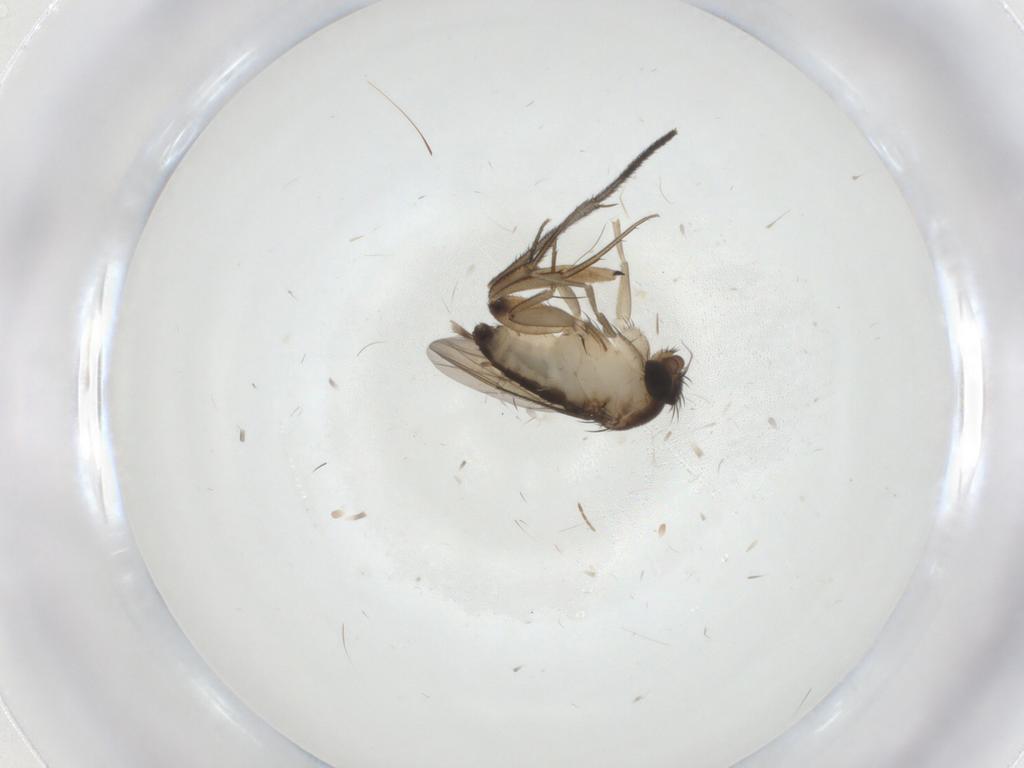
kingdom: Animalia
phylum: Arthropoda
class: Insecta
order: Diptera
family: Phoridae
